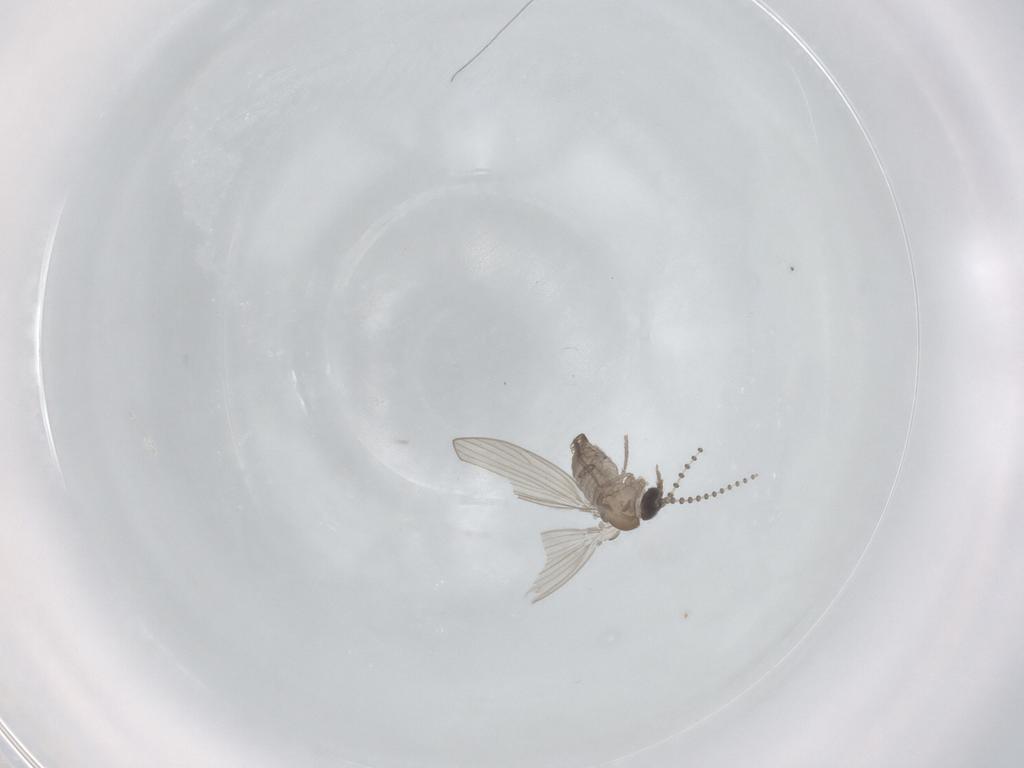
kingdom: Animalia
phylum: Arthropoda
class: Insecta
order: Diptera
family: Psychodidae
